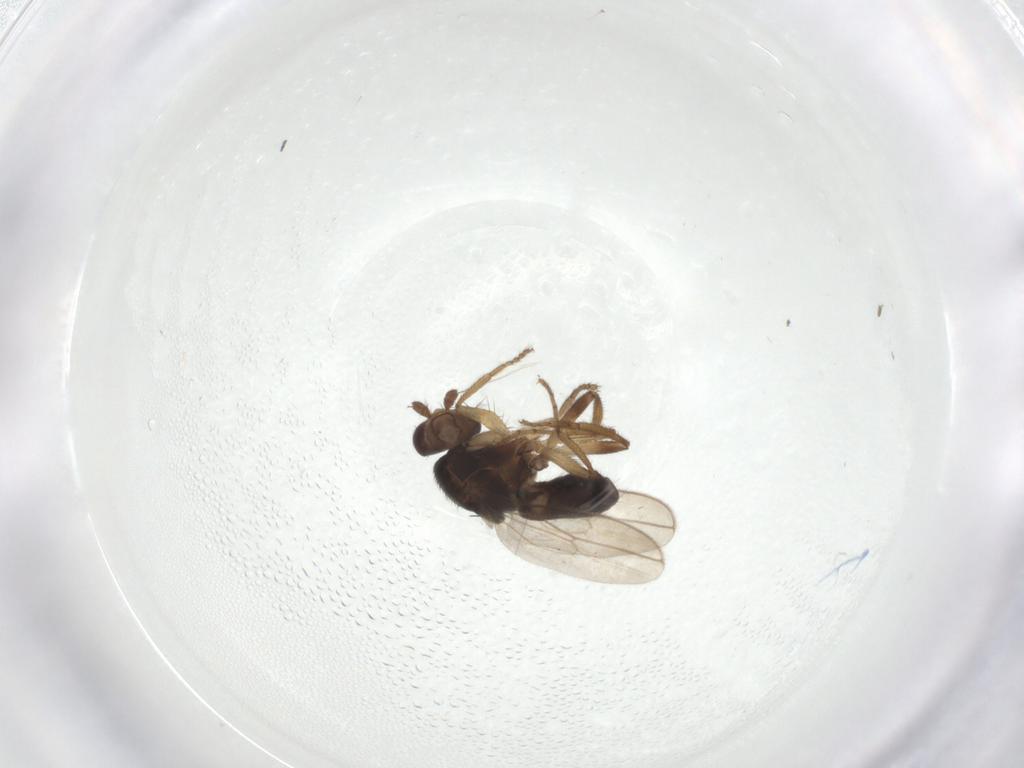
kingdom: Animalia
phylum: Arthropoda
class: Insecta
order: Diptera
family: Sphaeroceridae
